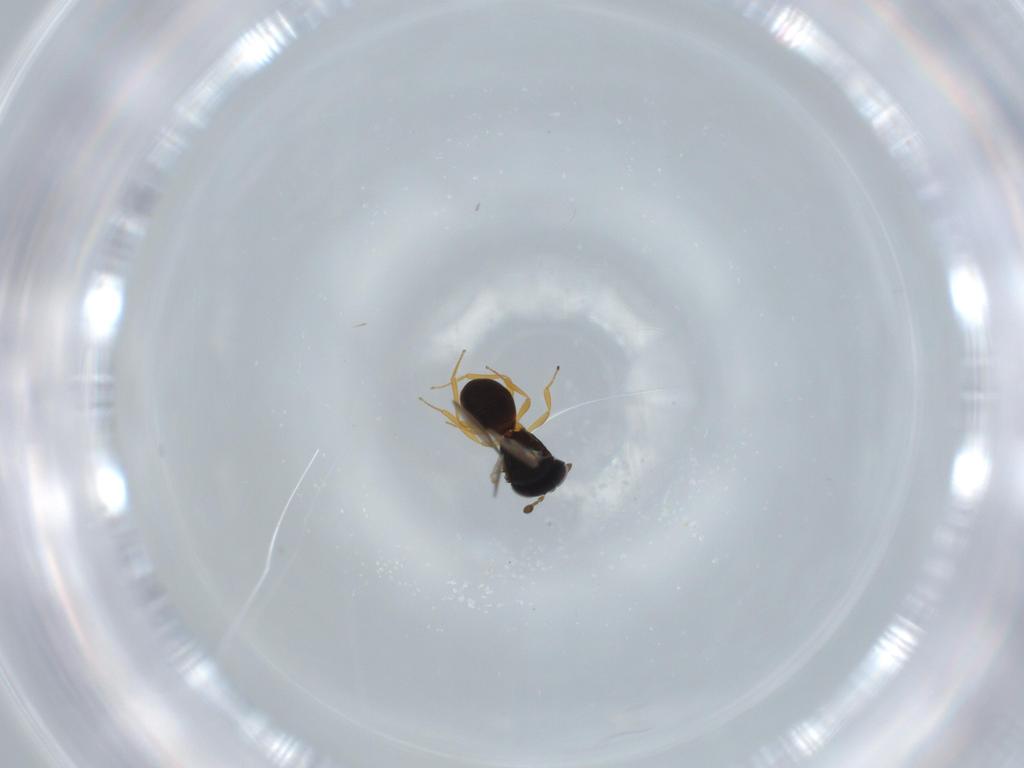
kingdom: Animalia
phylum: Arthropoda
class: Insecta
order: Hymenoptera
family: Scelionidae
